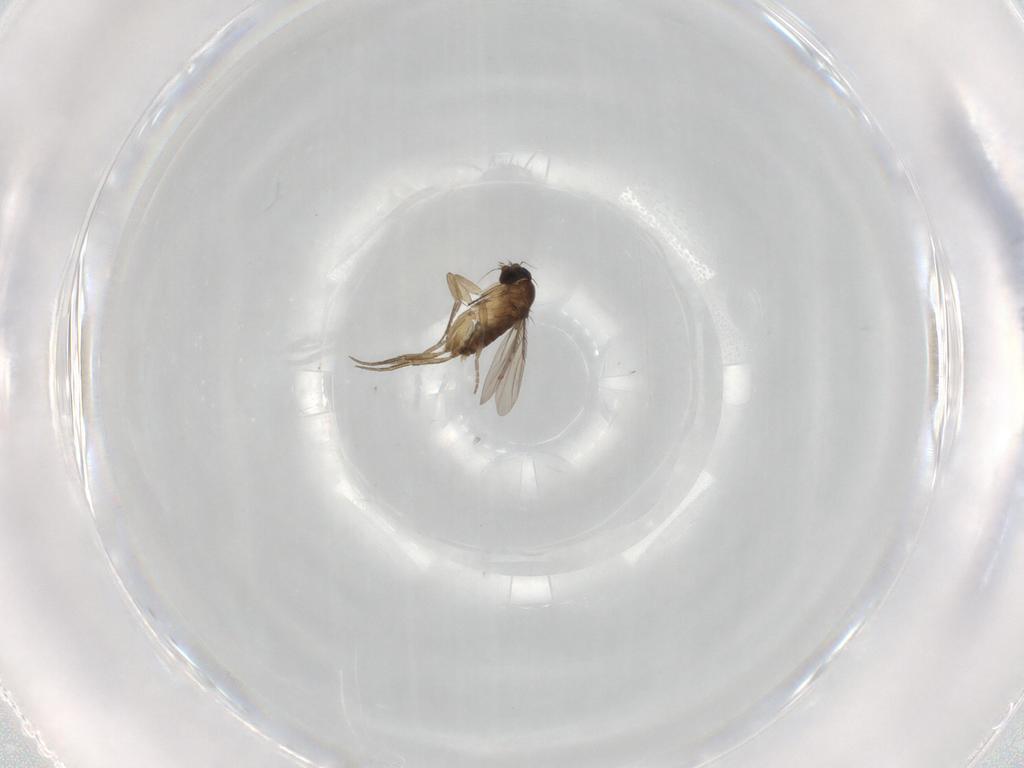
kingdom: Animalia
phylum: Arthropoda
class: Insecta
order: Diptera
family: Phoridae
